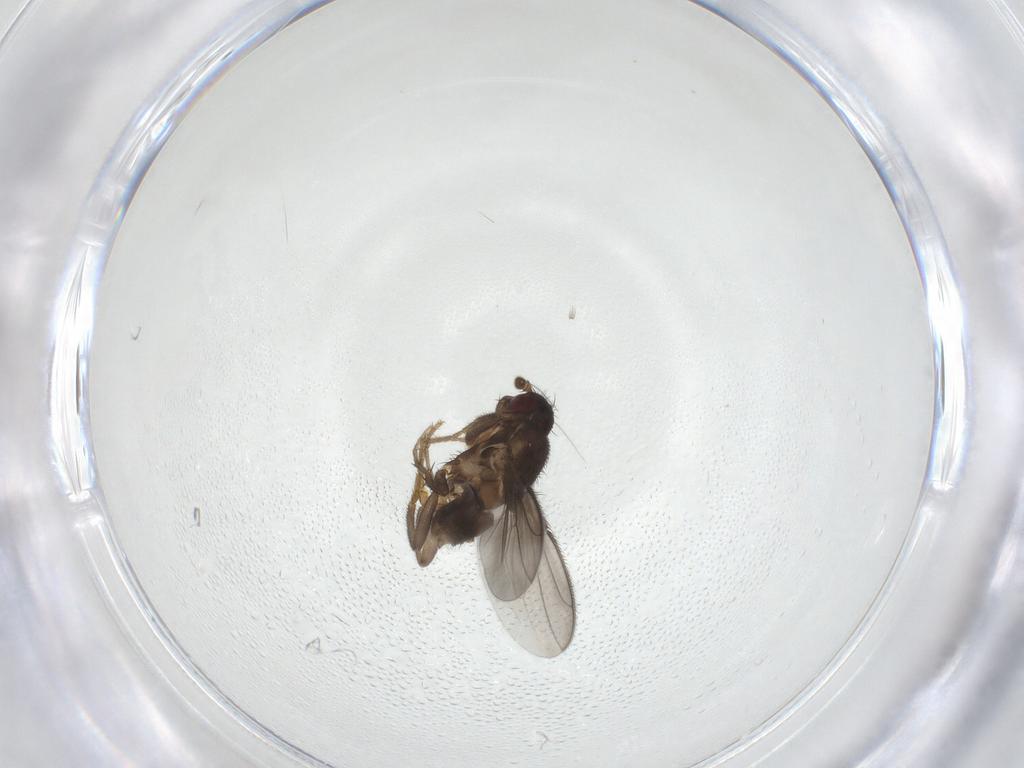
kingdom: Animalia
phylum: Arthropoda
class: Insecta
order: Diptera
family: Sphaeroceridae
